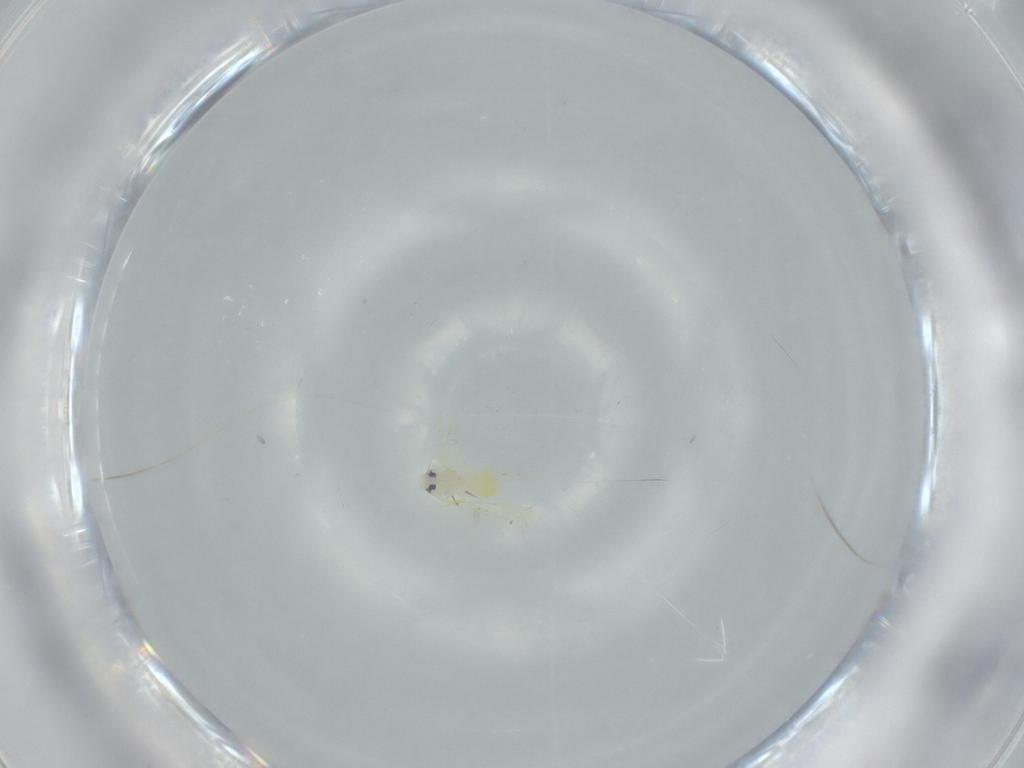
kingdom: Animalia
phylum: Arthropoda
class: Insecta
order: Hemiptera
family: Aleyrodidae
